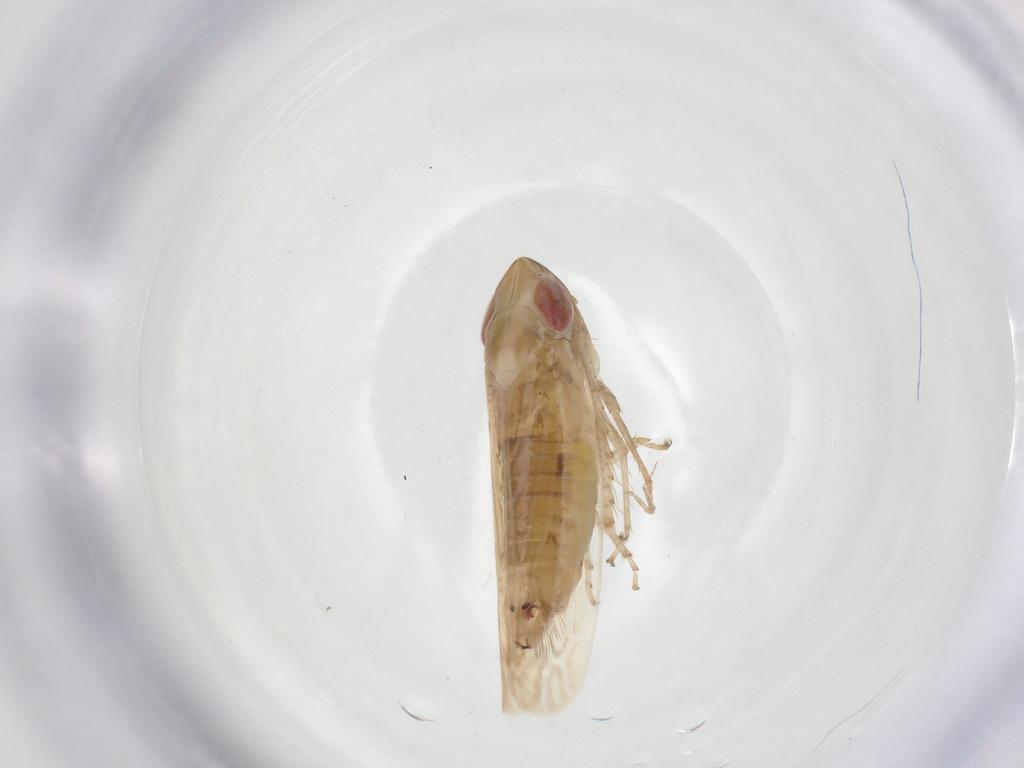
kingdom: Animalia
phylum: Arthropoda
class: Insecta
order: Hemiptera
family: Cicadellidae
